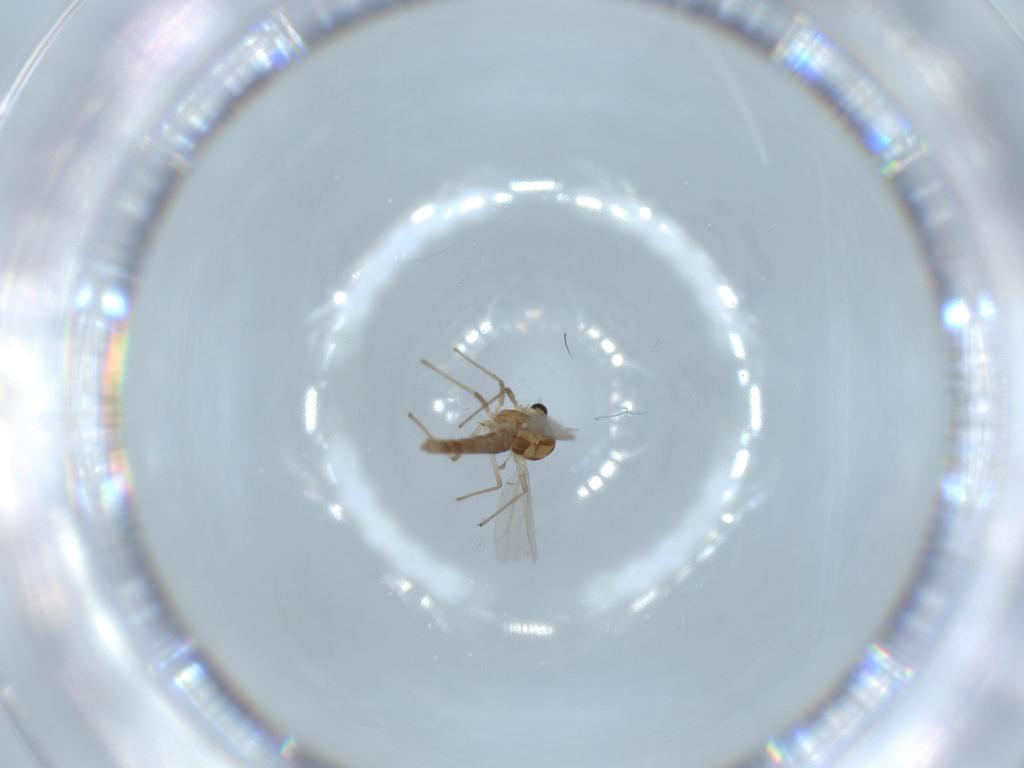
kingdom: Animalia
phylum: Arthropoda
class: Insecta
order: Diptera
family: Chironomidae
